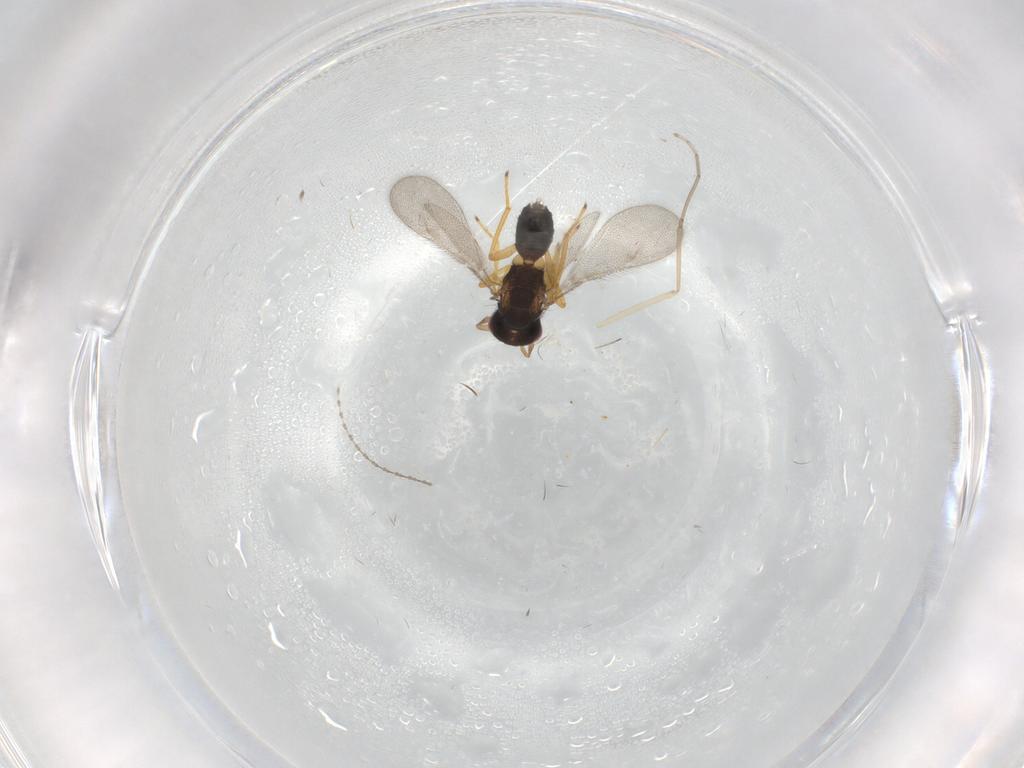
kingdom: Animalia
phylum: Arthropoda
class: Insecta
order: Hymenoptera
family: Eulophidae
